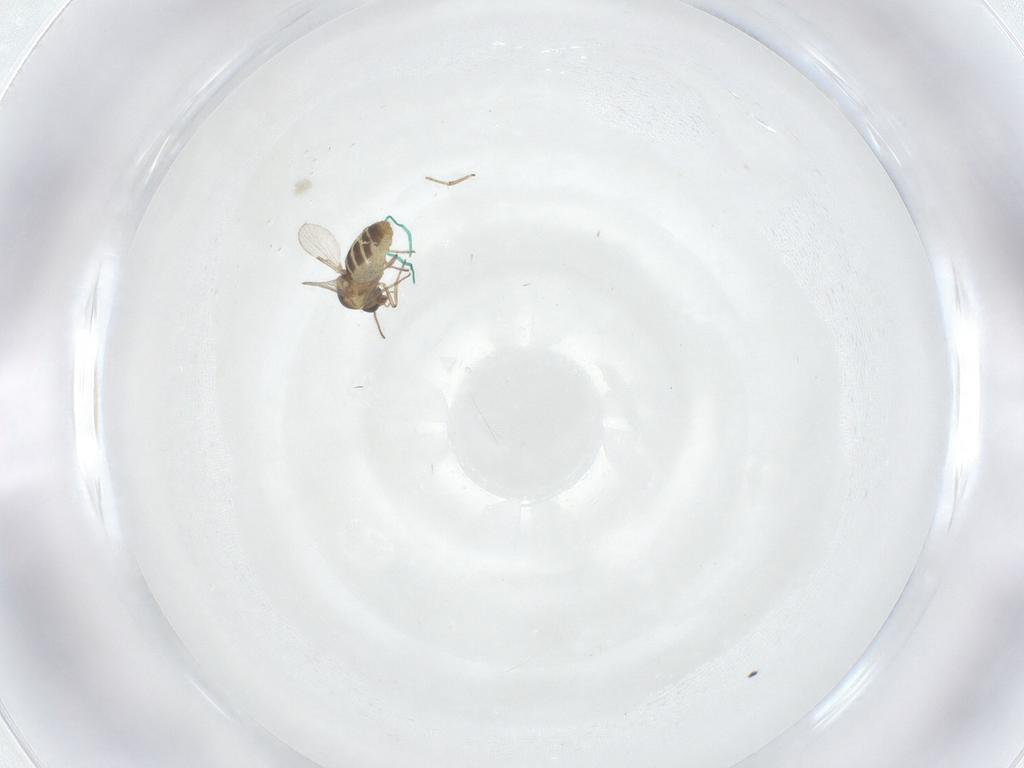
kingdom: Animalia
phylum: Arthropoda
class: Insecta
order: Diptera
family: Ceratopogonidae
